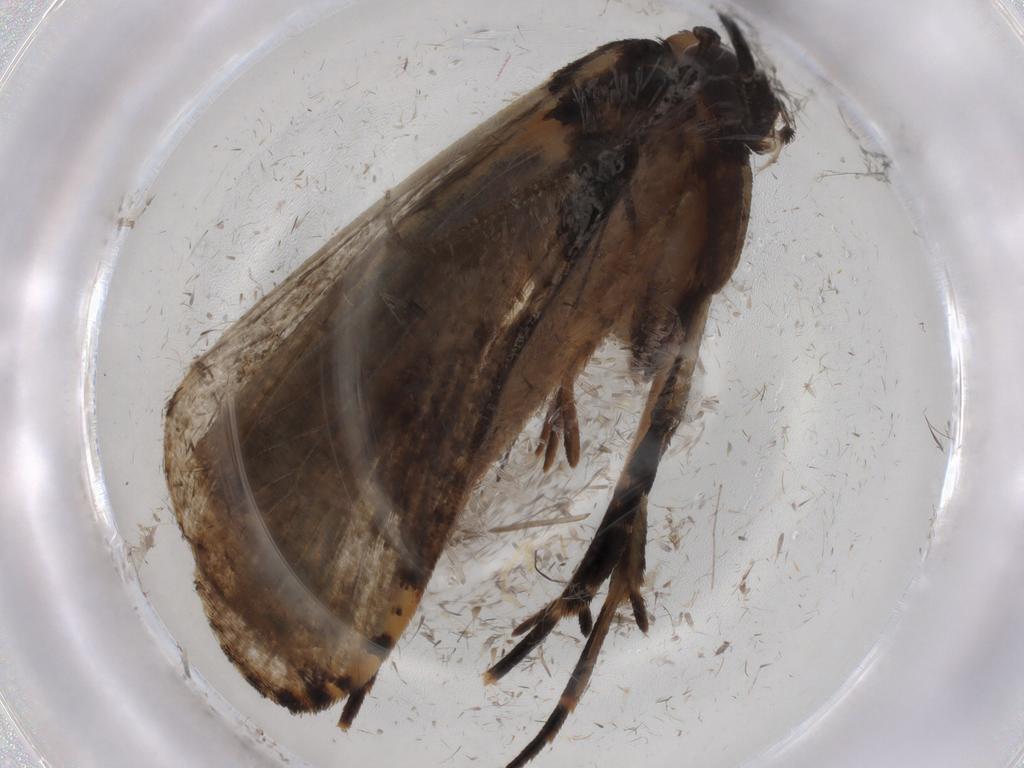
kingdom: Animalia
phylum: Arthropoda
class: Insecta
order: Lepidoptera
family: Tineidae
